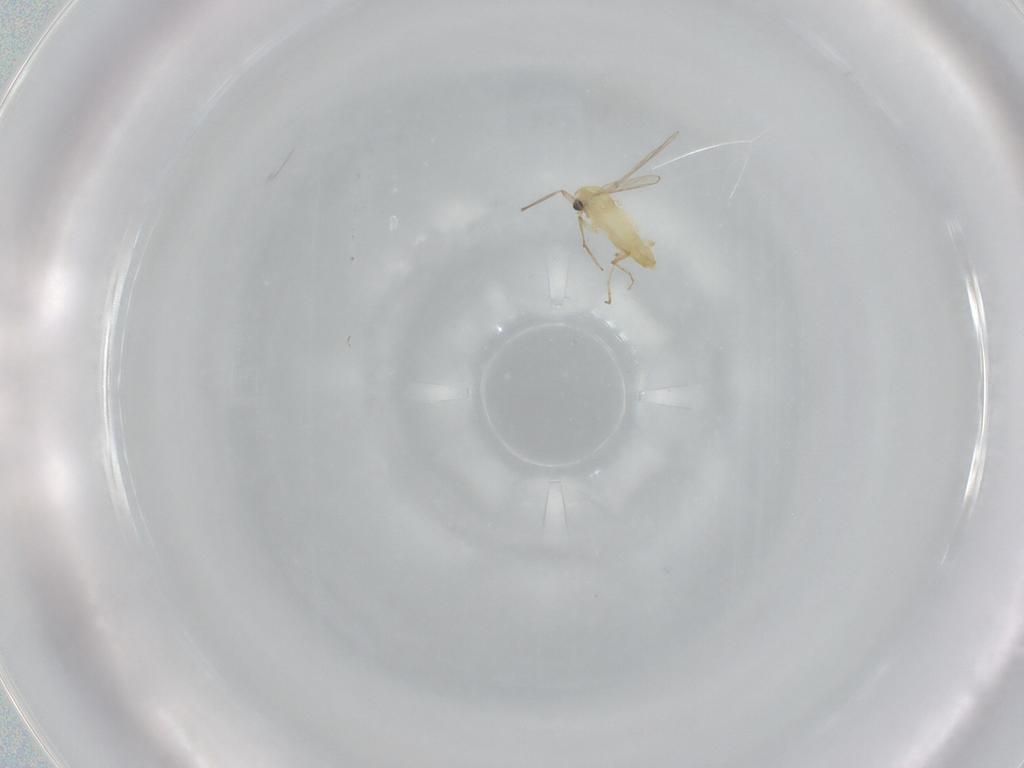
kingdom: Animalia
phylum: Arthropoda
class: Insecta
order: Diptera
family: Chironomidae
